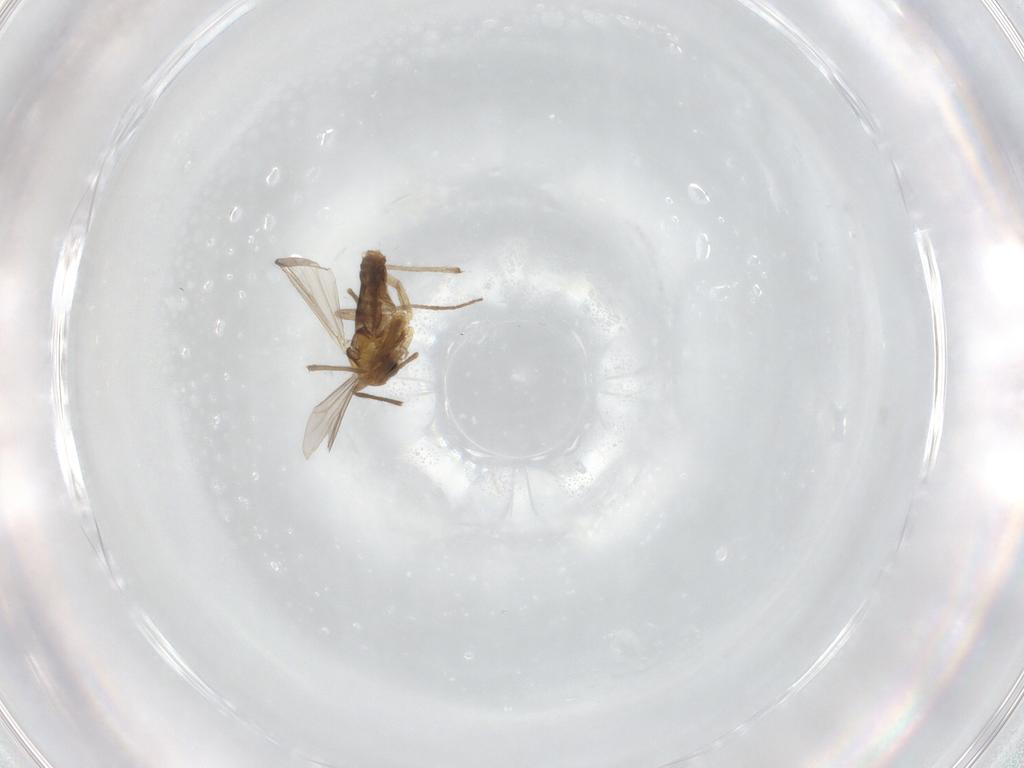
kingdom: Animalia
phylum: Arthropoda
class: Insecta
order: Diptera
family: Chironomidae
